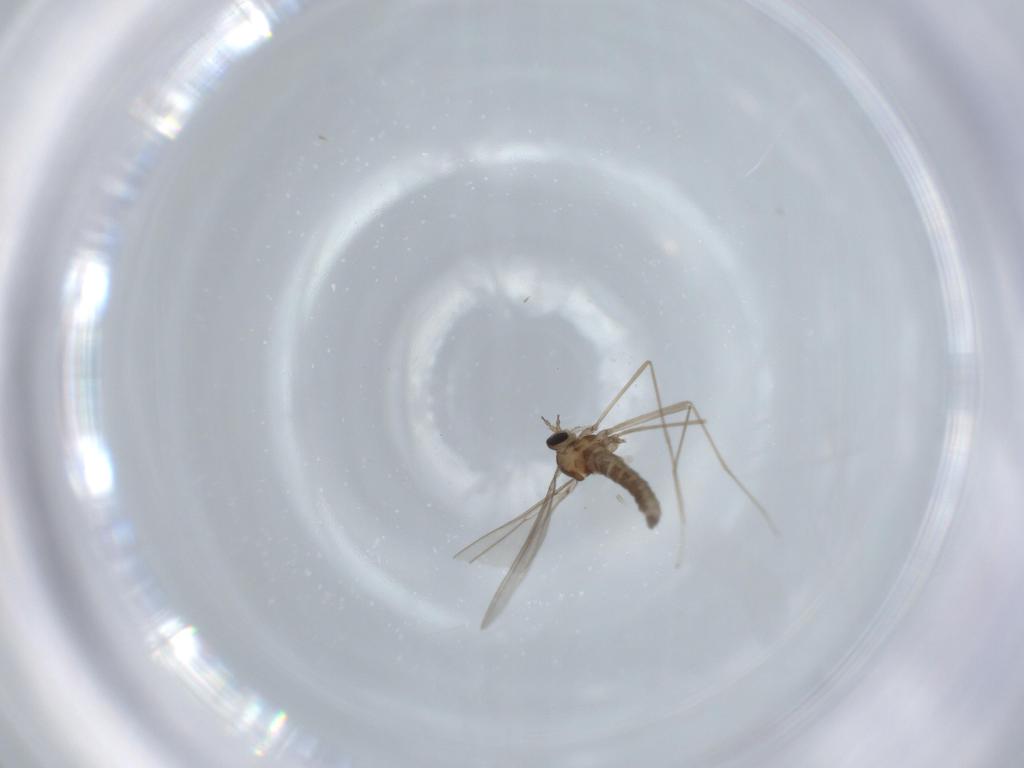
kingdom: Animalia
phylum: Arthropoda
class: Insecta
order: Diptera
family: Cecidomyiidae
